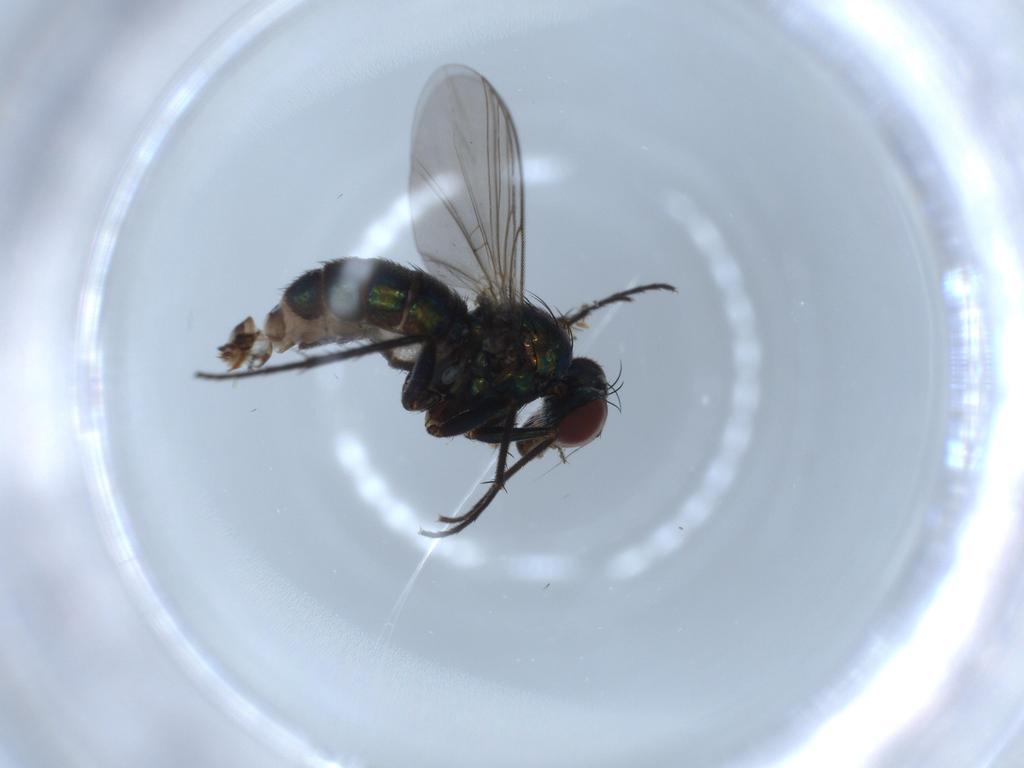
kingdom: Animalia
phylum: Arthropoda
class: Insecta
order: Diptera
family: Dolichopodidae
